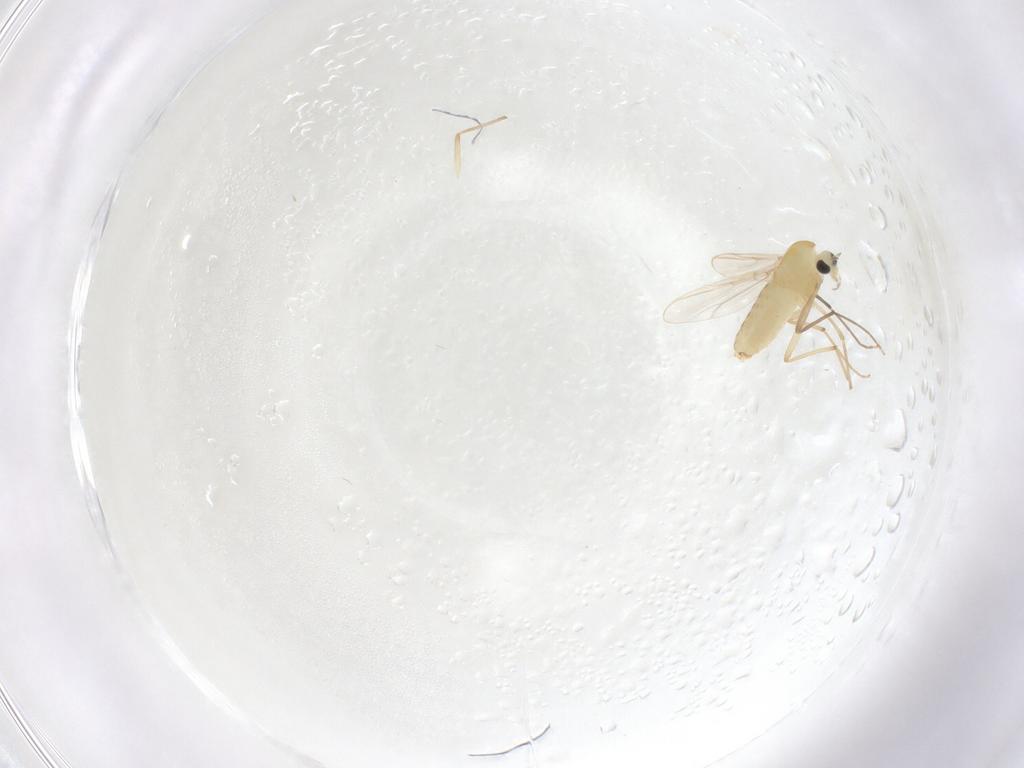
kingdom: Animalia
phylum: Arthropoda
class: Insecta
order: Diptera
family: Chironomidae
